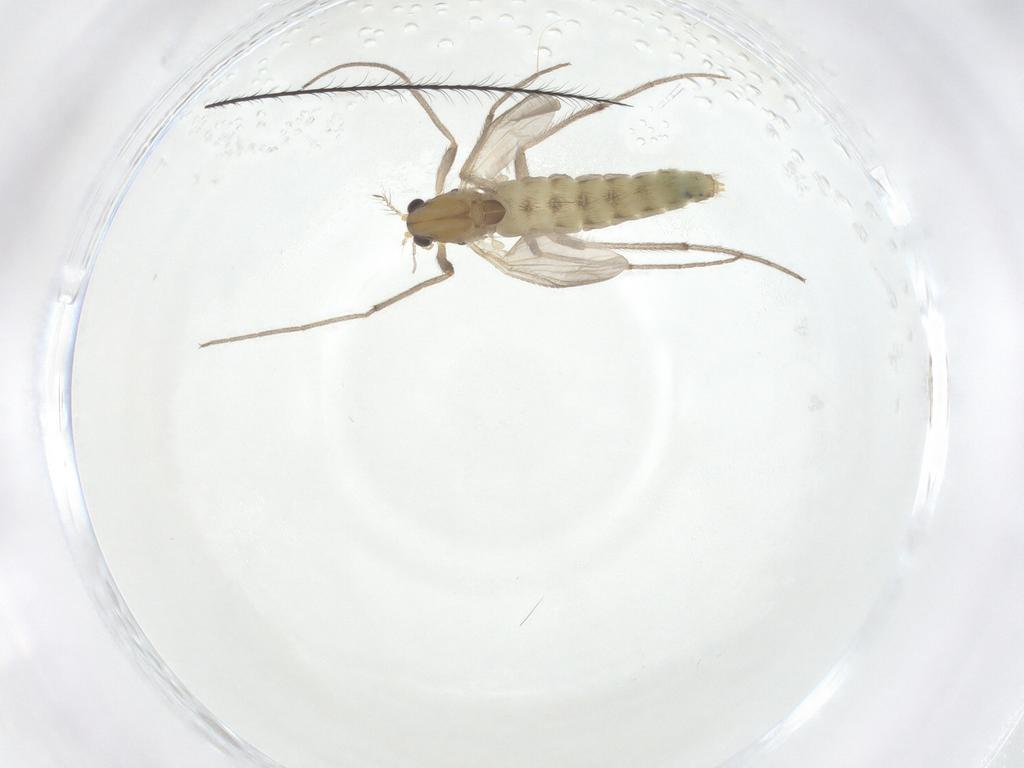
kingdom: Animalia
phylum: Arthropoda
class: Insecta
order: Diptera
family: Chironomidae
